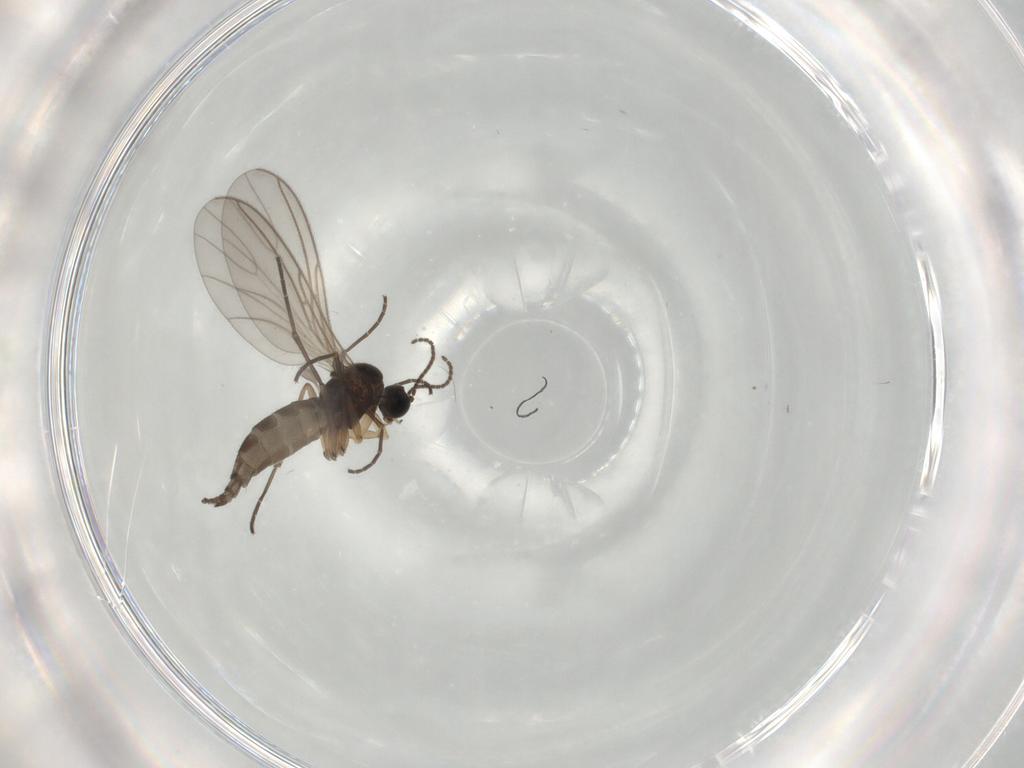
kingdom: Animalia
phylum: Arthropoda
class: Insecta
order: Diptera
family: Sciaridae
